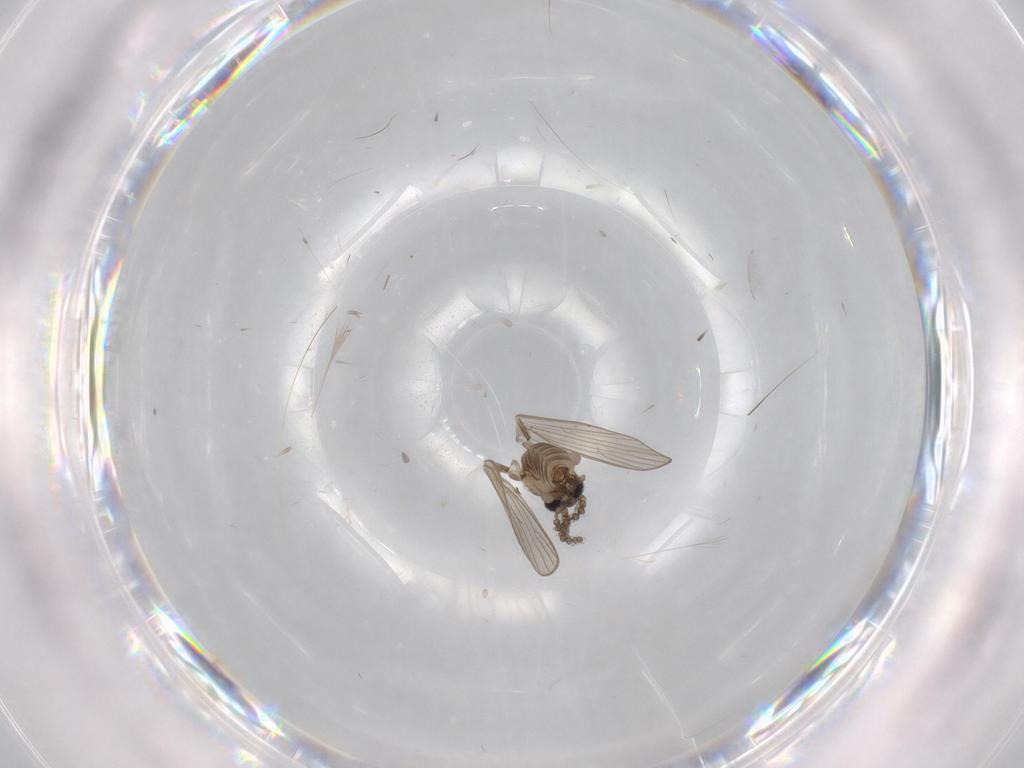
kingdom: Animalia
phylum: Arthropoda
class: Insecta
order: Diptera
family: Psychodidae
